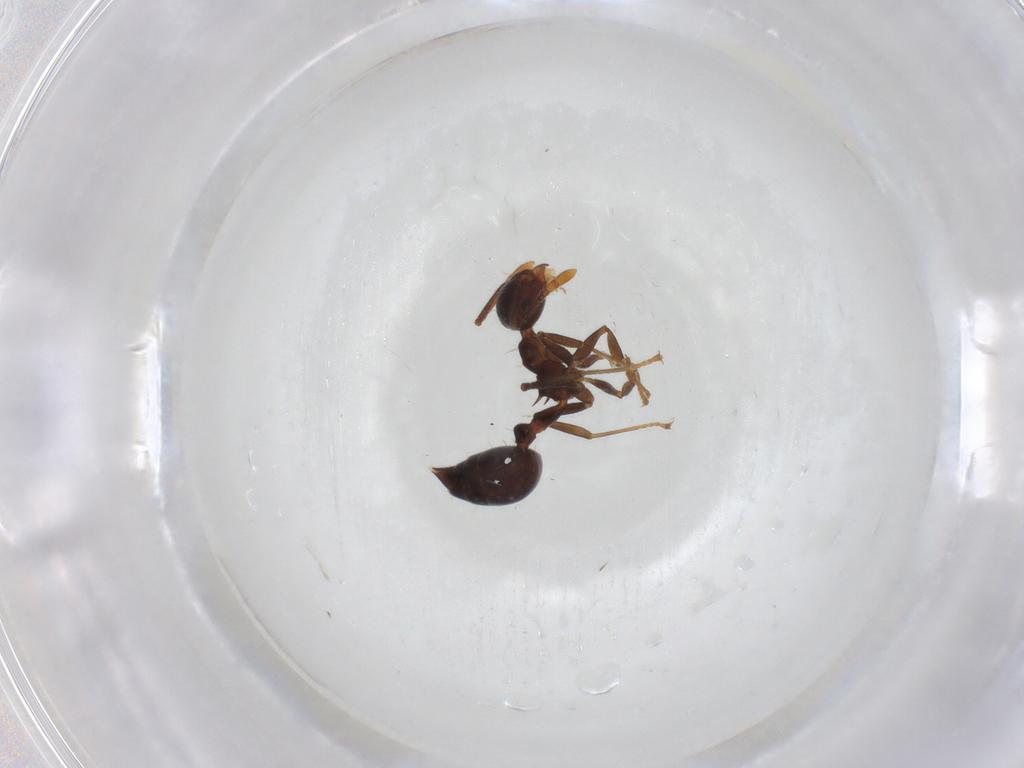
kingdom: Animalia
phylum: Arthropoda
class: Insecta
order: Hymenoptera
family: Formicidae
